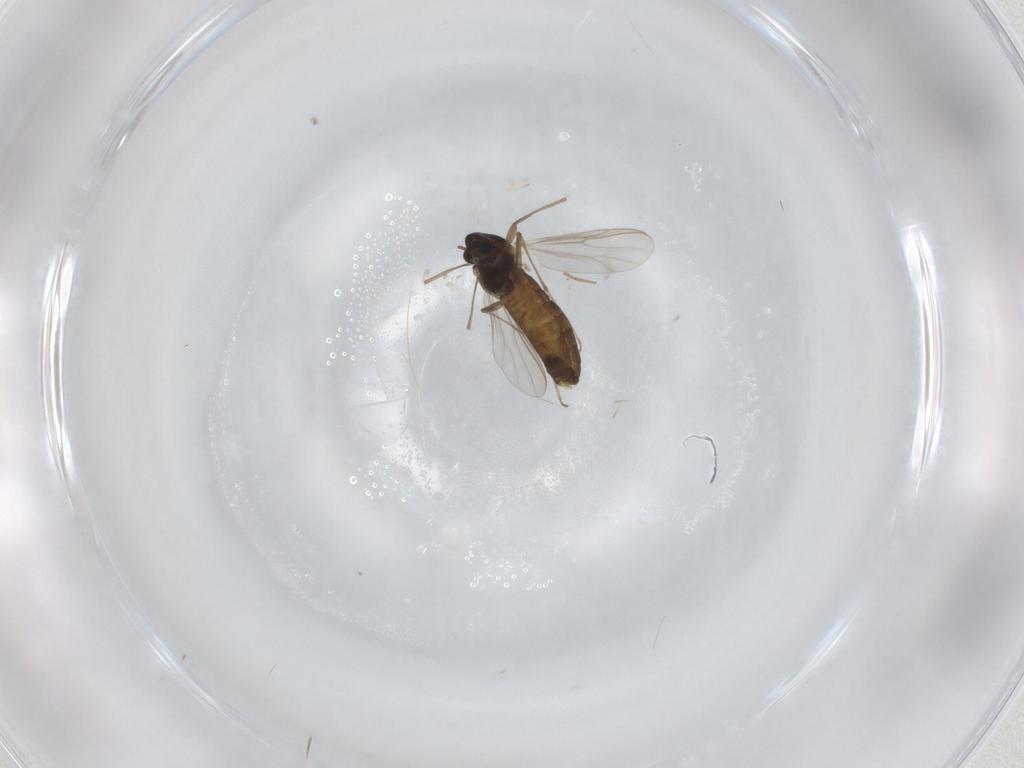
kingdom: Animalia
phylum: Arthropoda
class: Insecta
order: Diptera
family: Chironomidae
